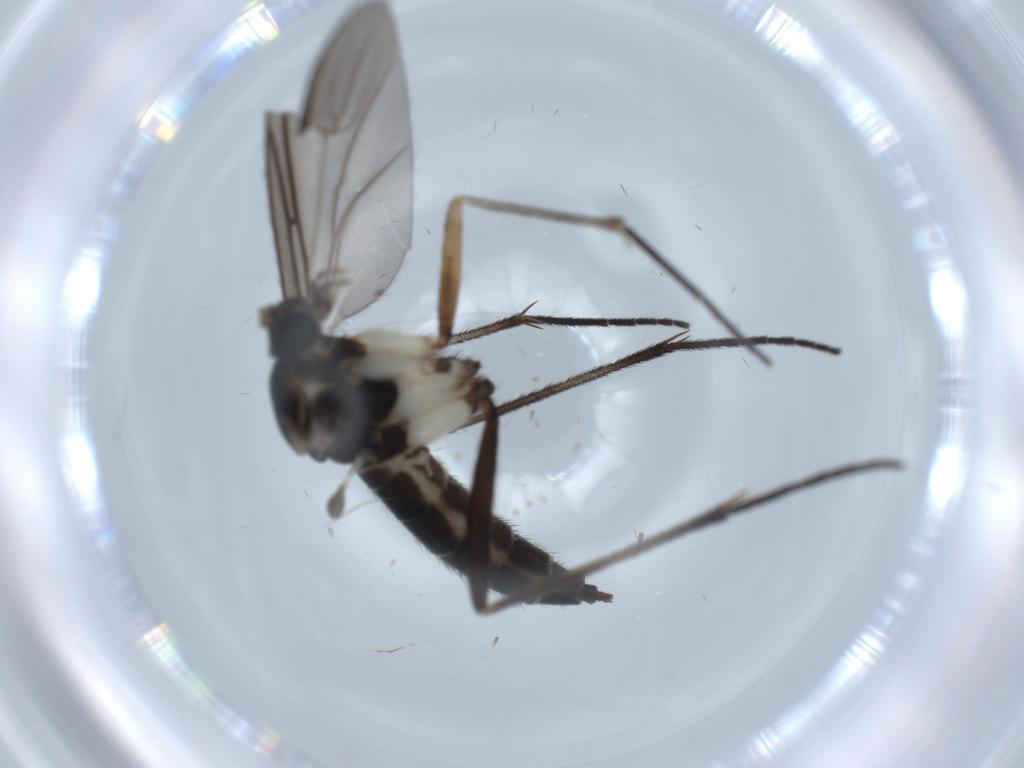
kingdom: Animalia
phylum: Arthropoda
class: Insecta
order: Diptera
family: Sciaridae
